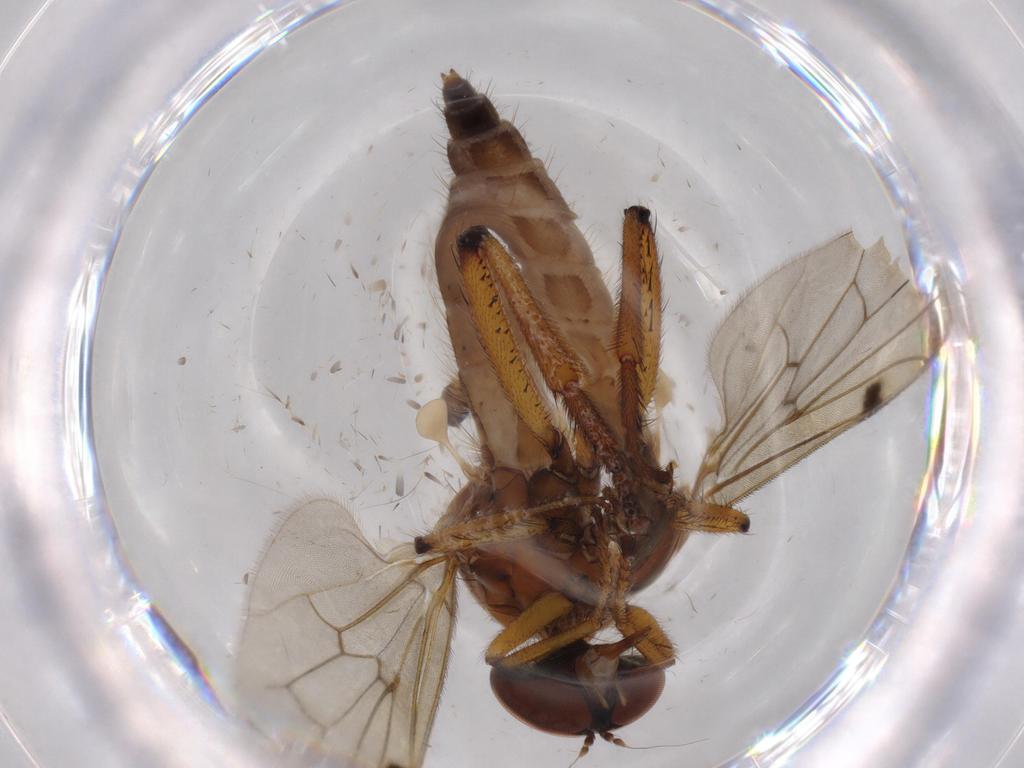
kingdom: Animalia
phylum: Arthropoda
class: Insecta
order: Diptera
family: Hybotidae
